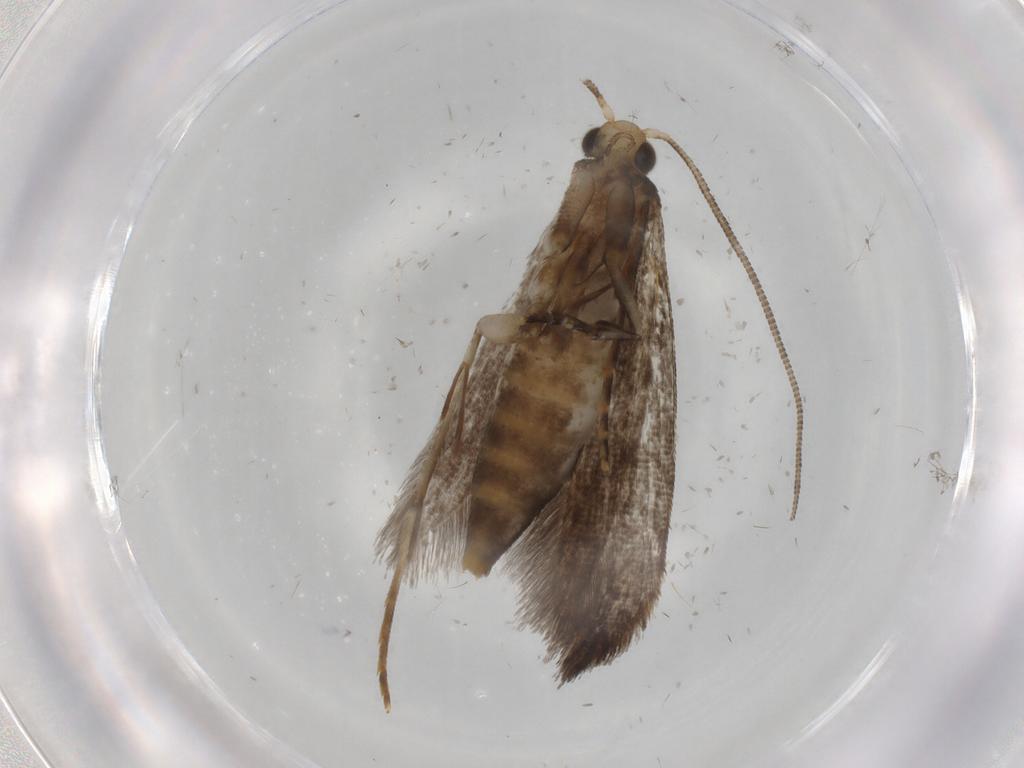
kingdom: Animalia
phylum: Arthropoda
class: Insecta
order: Lepidoptera
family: Tineidae
